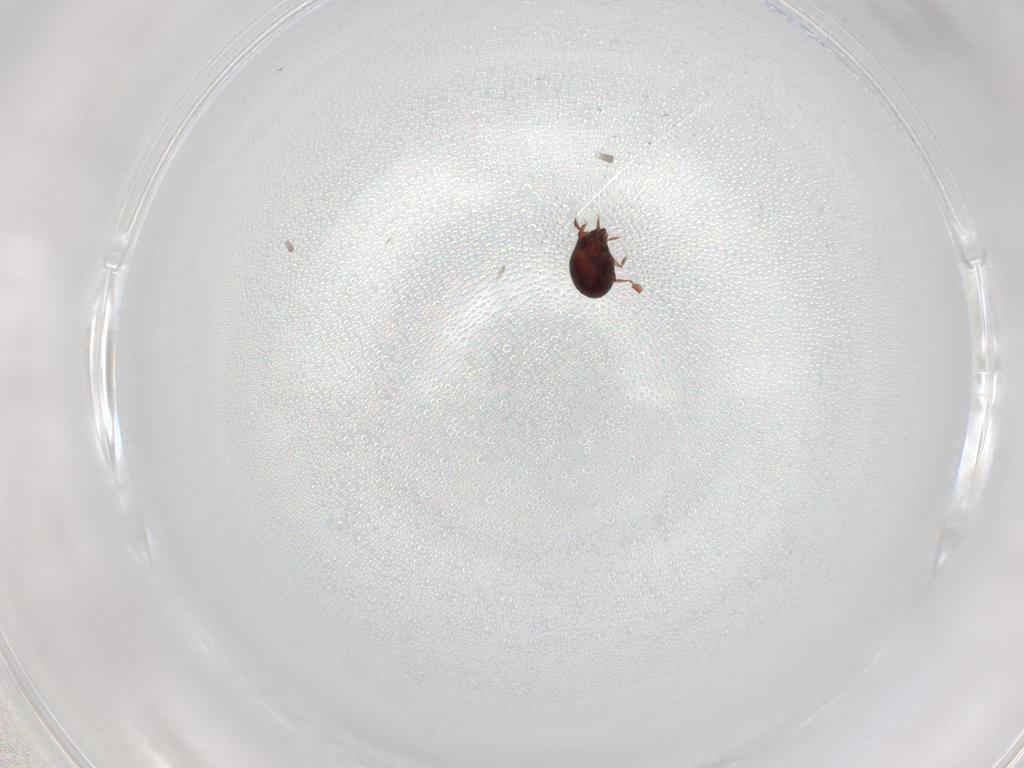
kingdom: Animalia
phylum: Arthropoda
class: Arachnida
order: Sarcoptiformes
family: Humerobatidae
